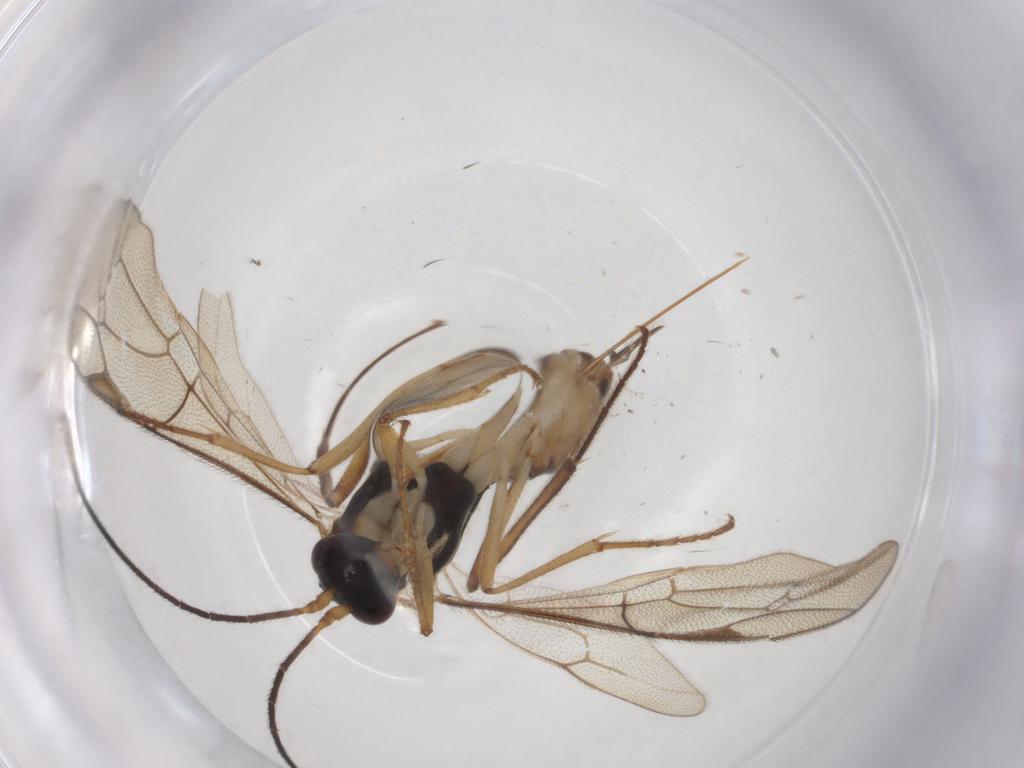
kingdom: Animalia
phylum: Arthropoda
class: Insecta
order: Hymenoptera
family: Ichneumonidae
